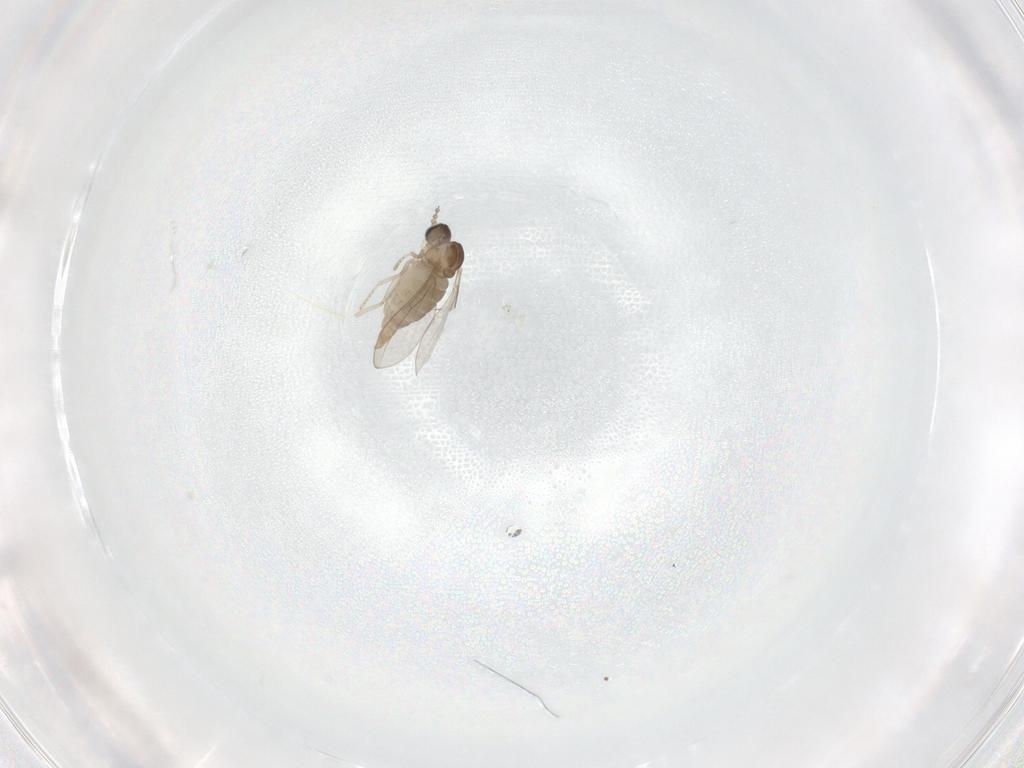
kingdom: Animalia
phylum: Arthropoda
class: Insecta
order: Diptera
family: Cecidomyiidae
